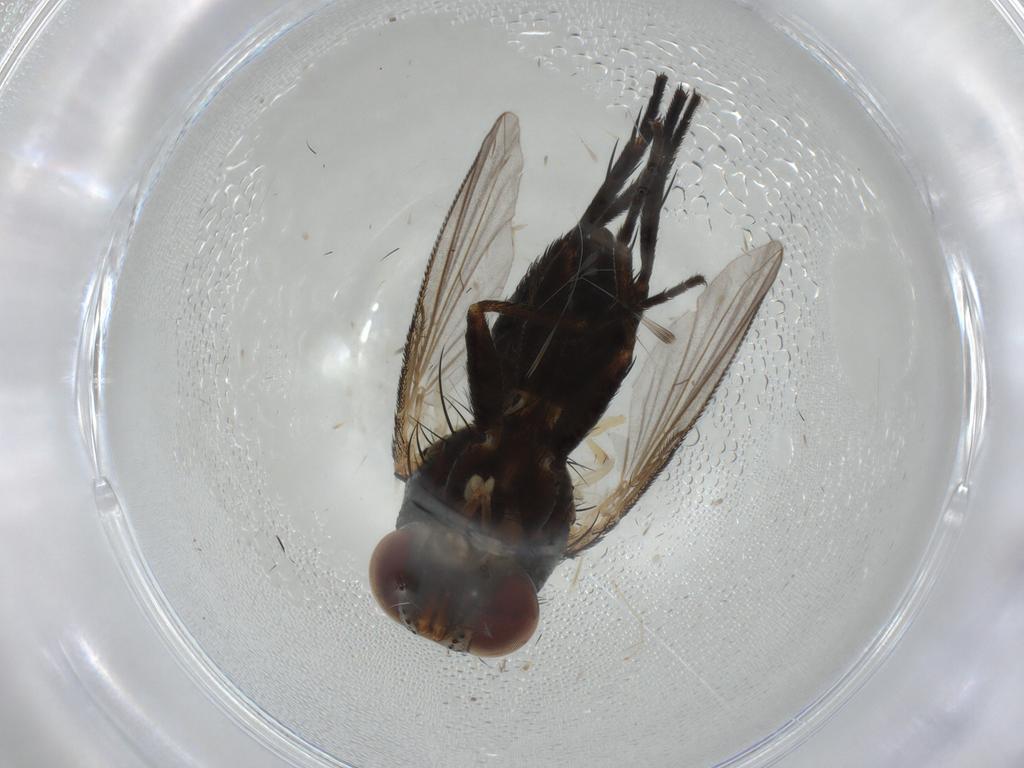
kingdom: Animalia
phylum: Arthropoda
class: Insecta
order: Diptera
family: Tachinidae
